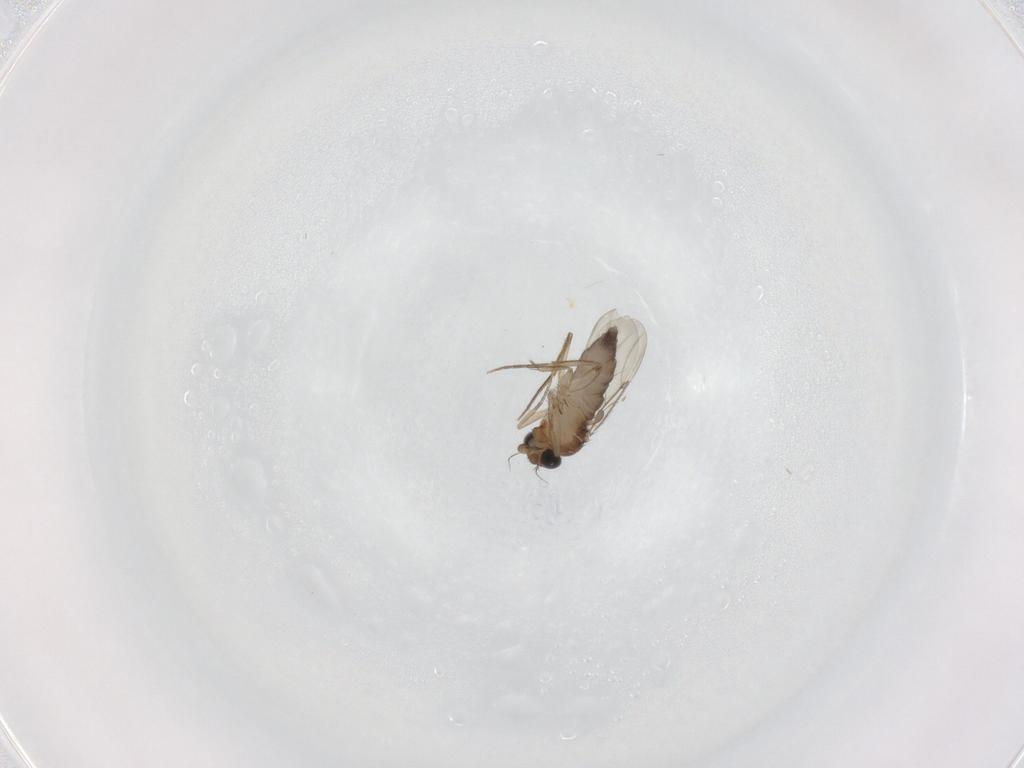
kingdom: Animalia
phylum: Arthropoda
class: Insecta
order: Diptera
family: Phoridae
